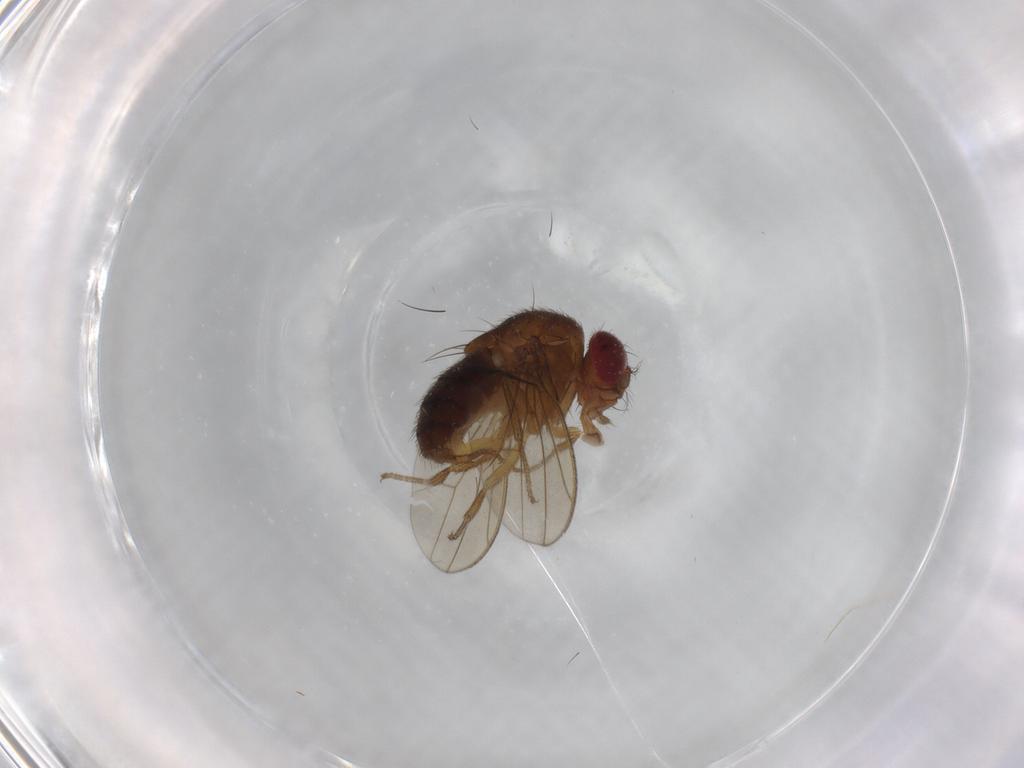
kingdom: Animalia
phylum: Arthropoda
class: Insecta
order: Diptera
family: Drosophilidae
